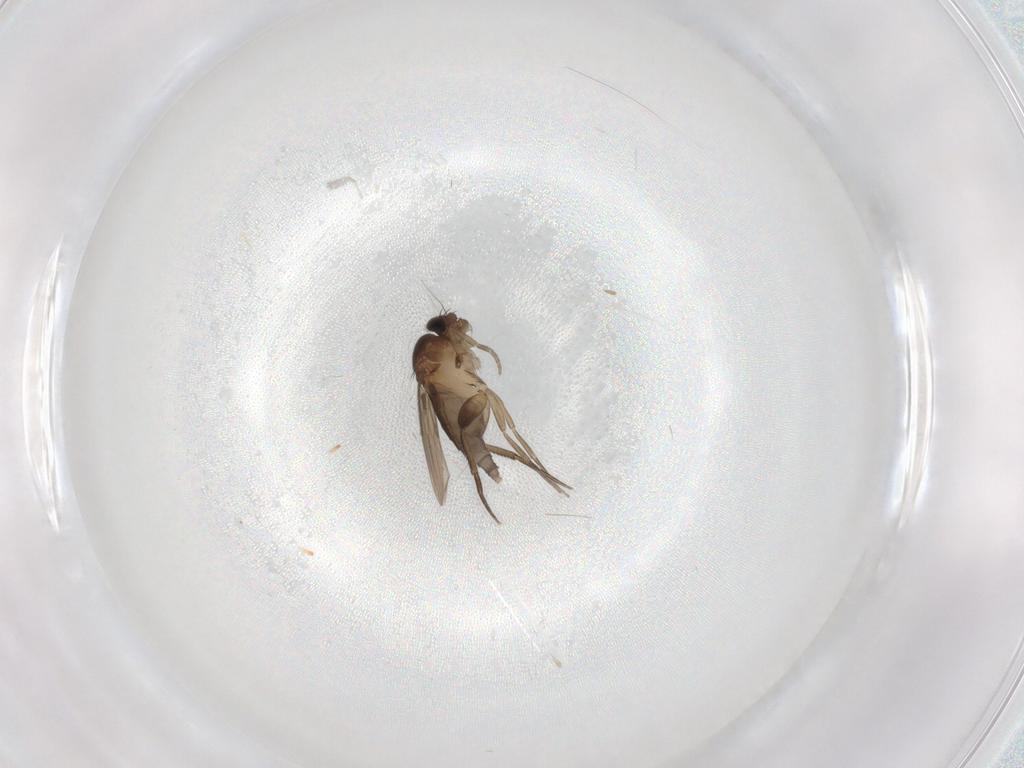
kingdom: Animalia
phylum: Arthropoda
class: Insecta
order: Diptera
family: Phoridae
